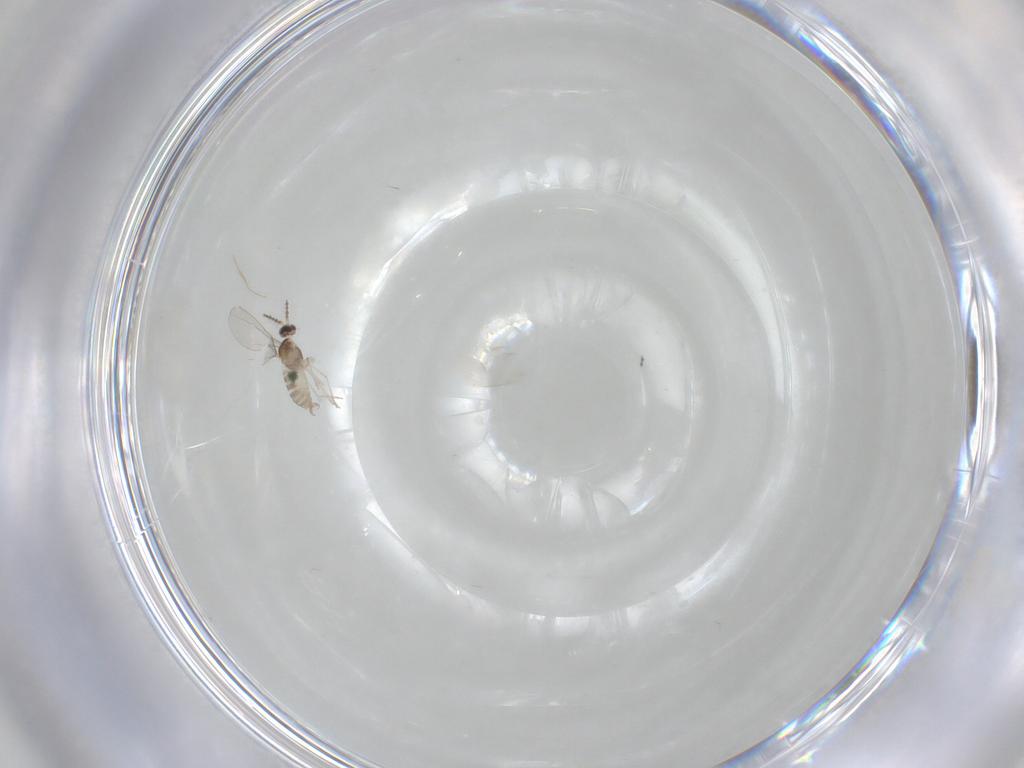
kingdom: Animalia
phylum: Arthropoda
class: Insecta
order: Diptera
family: Cecidomyiidae
